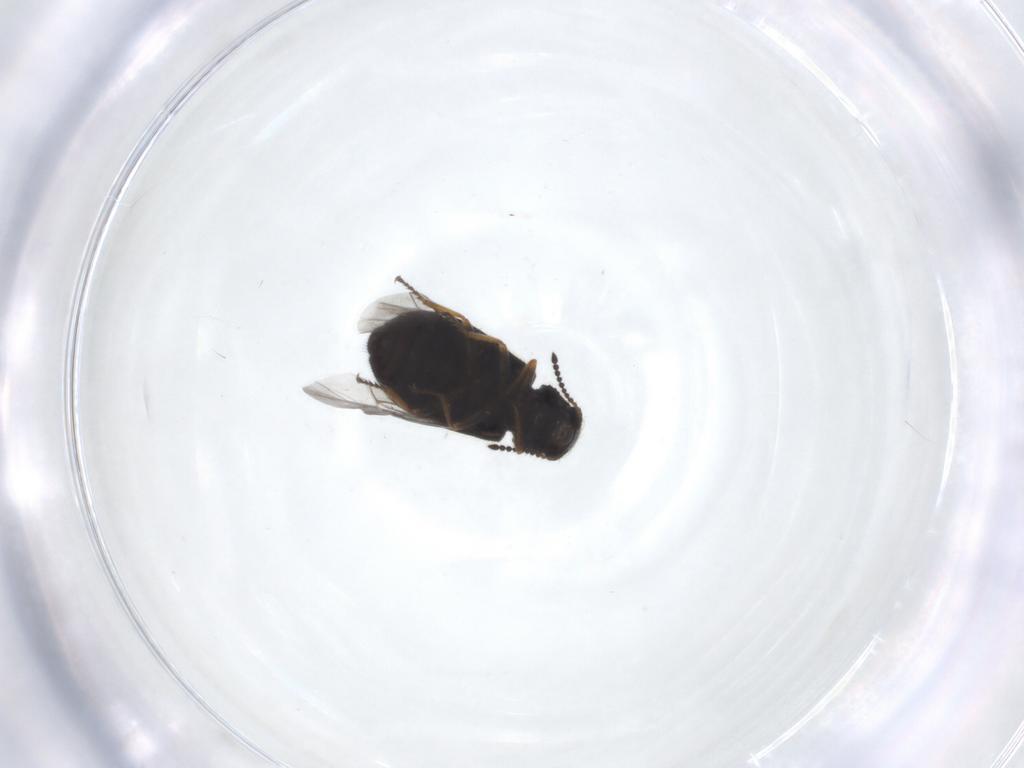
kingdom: Animalia
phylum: Arthropoda
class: Insecta
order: Coleoptera
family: Melyridae
